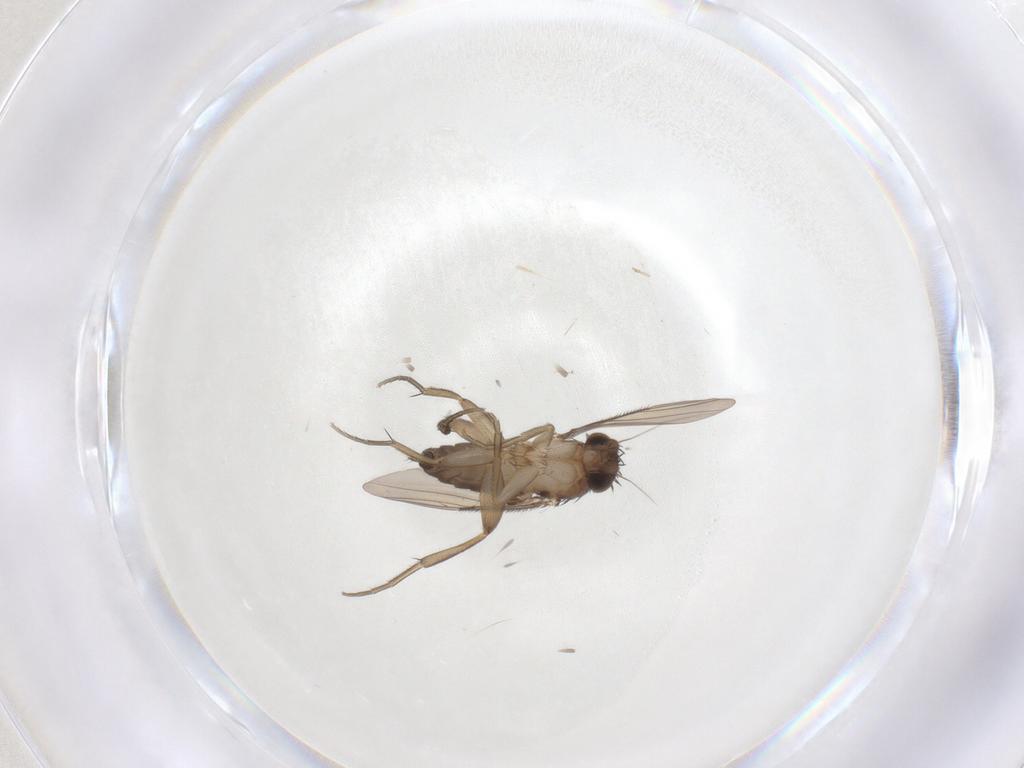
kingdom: Animalia
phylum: Arthropoda
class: Insecta
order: Diptera
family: Phoridae
